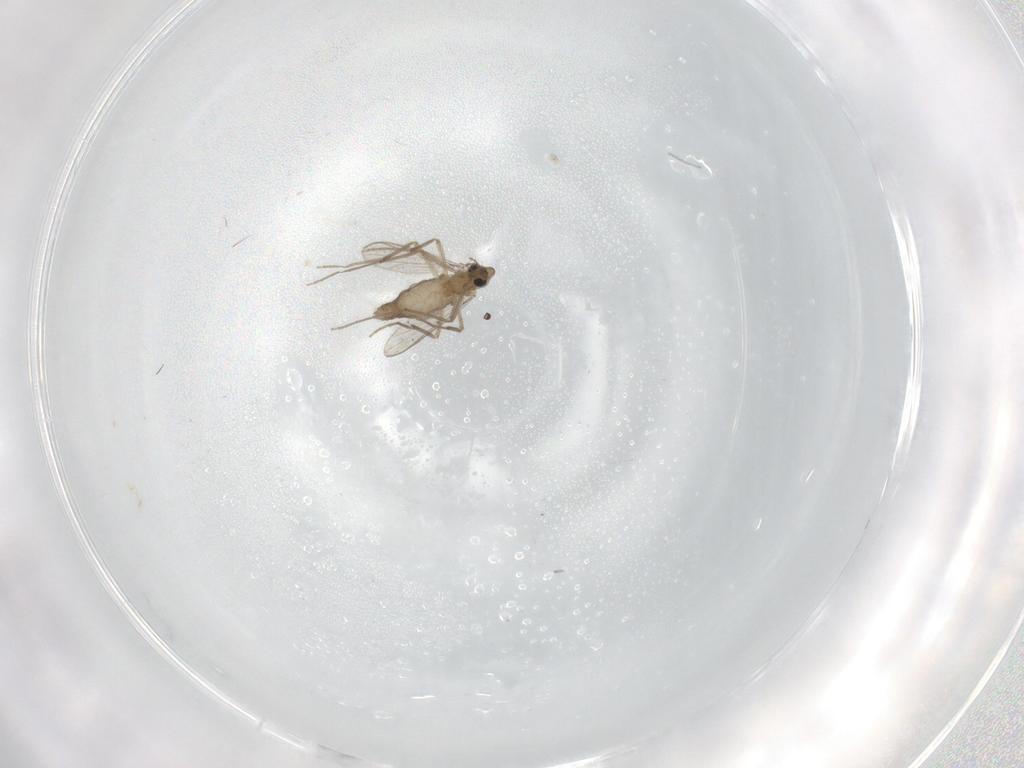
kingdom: Animalia
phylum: Arthropoda
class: Insecta
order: Diptera
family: Chironomidae
